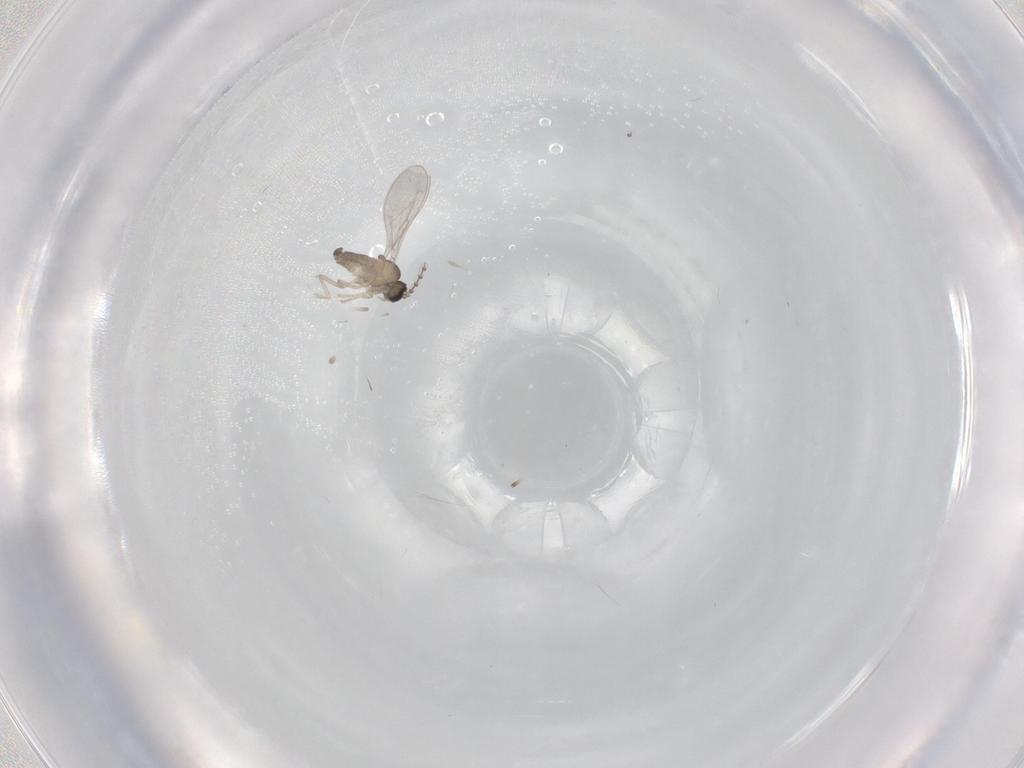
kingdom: Animalia
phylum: Arthropoda
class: Insecta
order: Diptera
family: Cecidomyiidae
